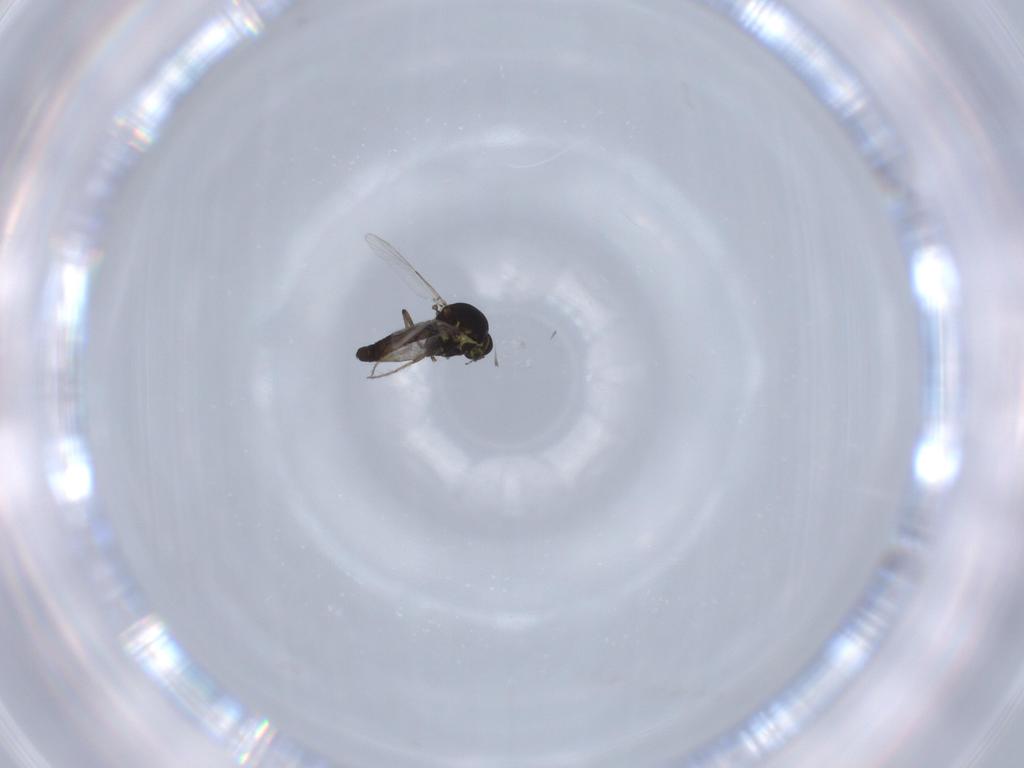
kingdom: Animalia
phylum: Arthropoda
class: Insecta
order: Diptera
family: Ceratopogonidae
